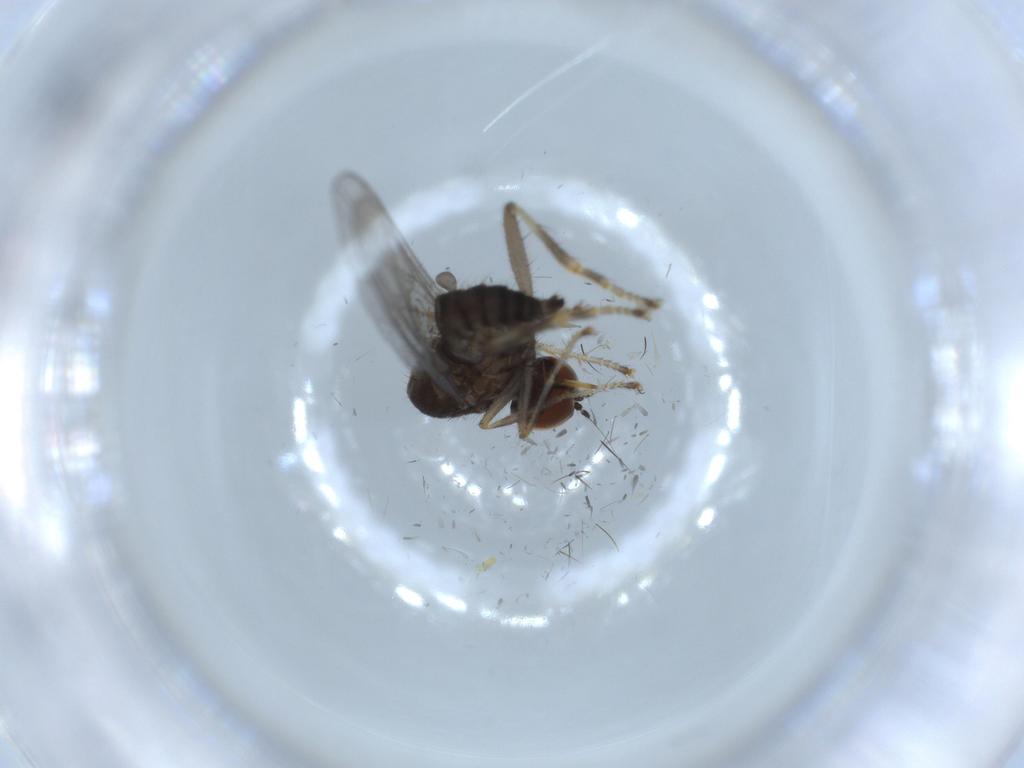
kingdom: Animalia
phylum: Arthropoda
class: Insecta
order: Diptera
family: Hybotidae
